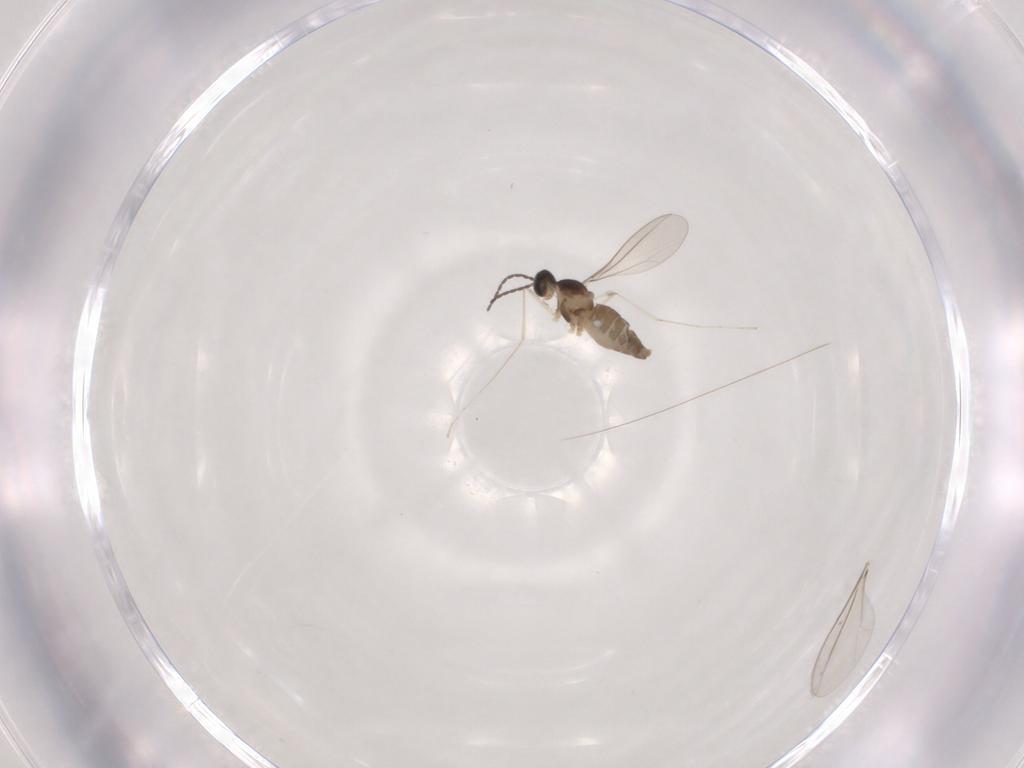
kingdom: Animalia
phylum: Arthropoda
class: Insecta
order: Diptera
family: Cecidomyiidae
